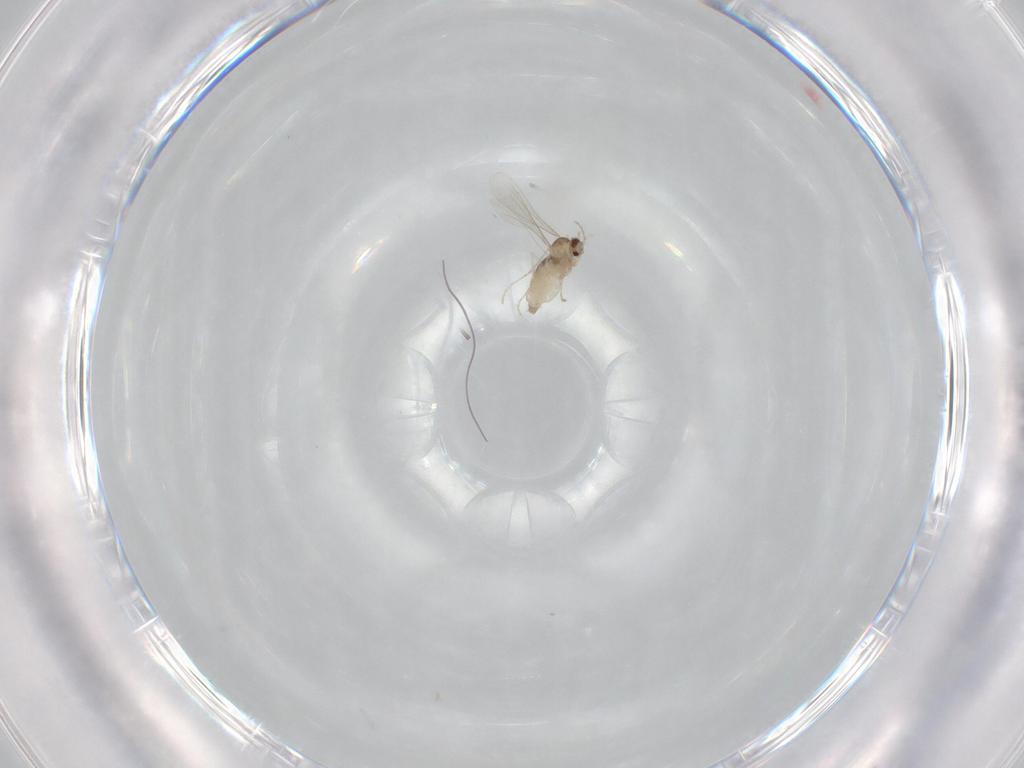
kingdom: Animalia
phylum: Arthropoda
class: Insecta
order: Diptera
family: Cecidomyiidae
